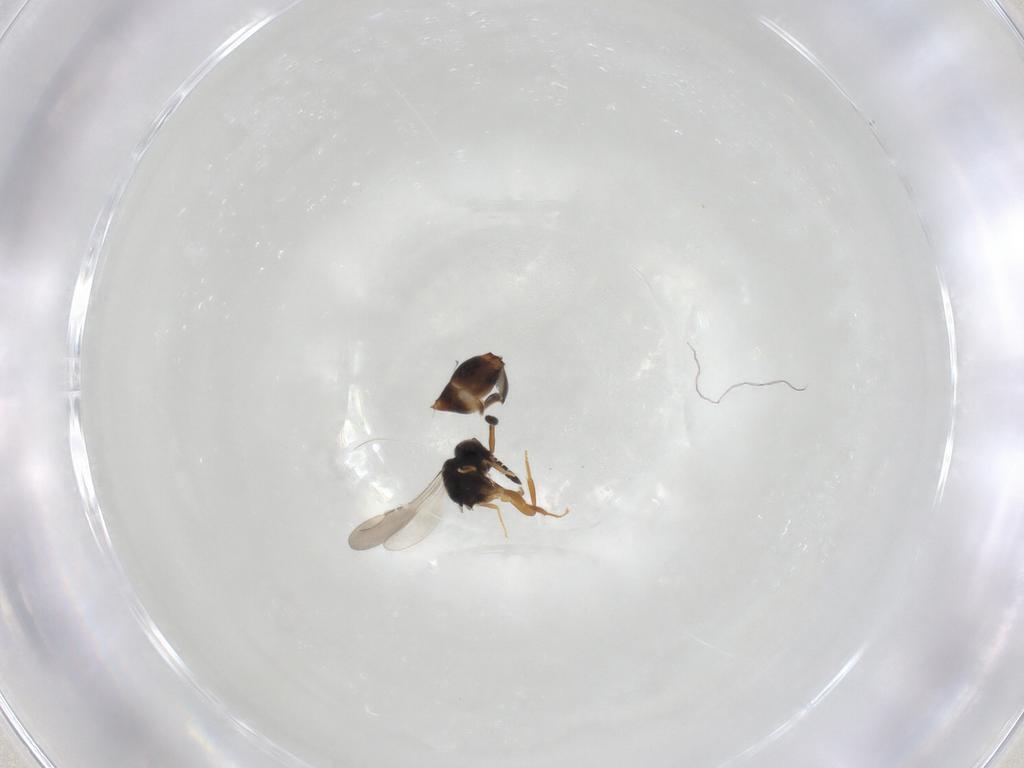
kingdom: Animalia
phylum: Arthropoda
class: Insecta
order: Hymenoptera
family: Ceraphronidae
